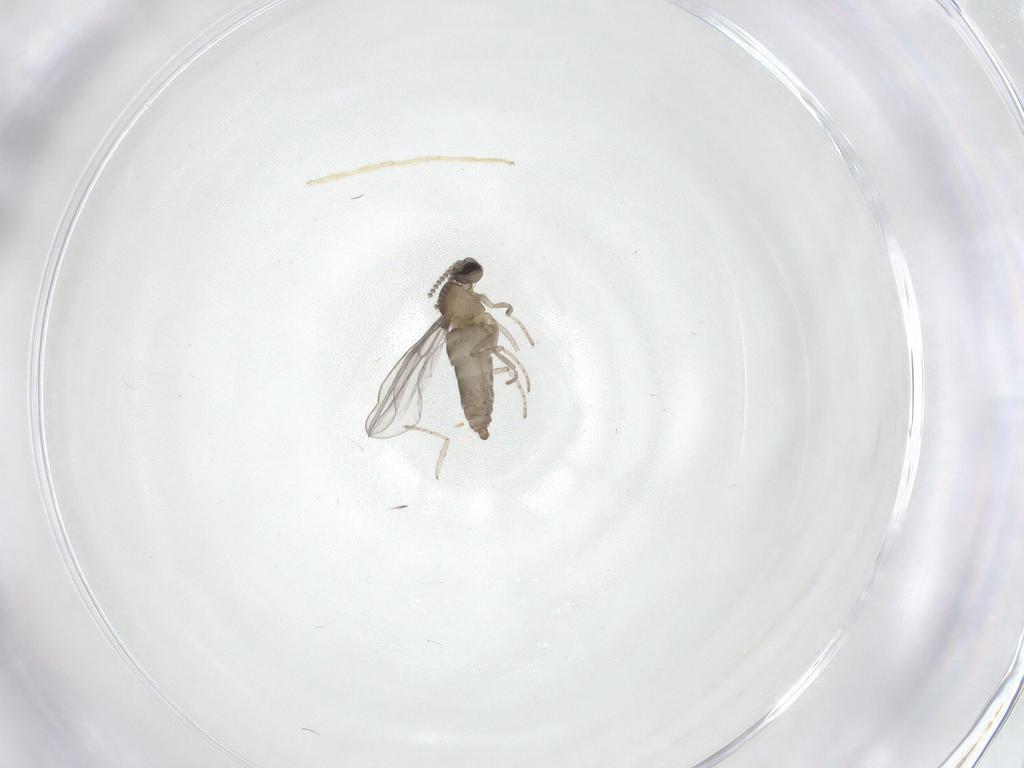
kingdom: Animalia
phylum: Arthropoda
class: Insecta
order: Diptera
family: Cecidomyiidae
